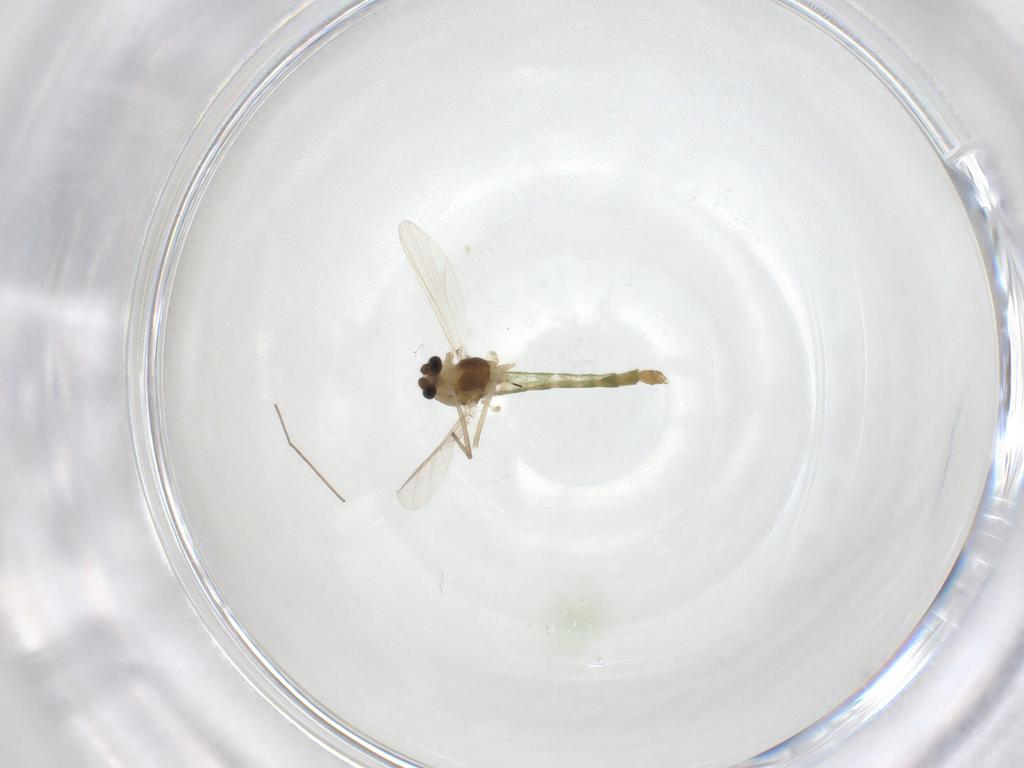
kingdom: Animalia
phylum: Arthropoda
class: Insecta
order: Diptera
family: Chironomidae
